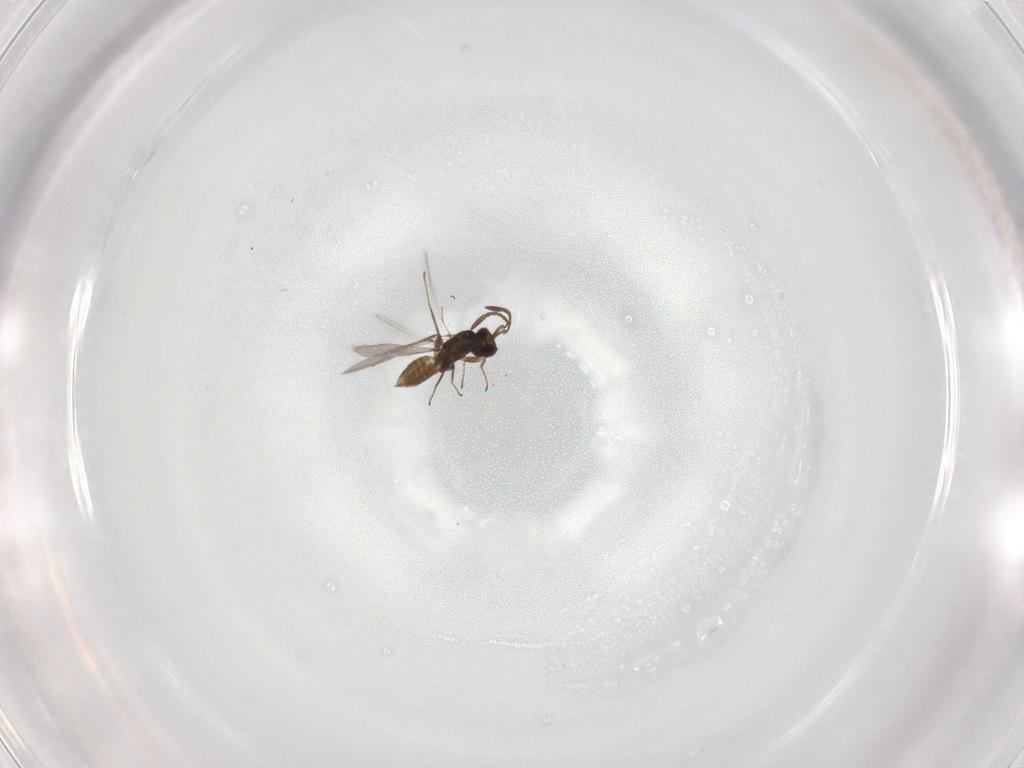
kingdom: Animalia
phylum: Arthropoda
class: Insecta
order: Hymenoptera
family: Mymaridae
